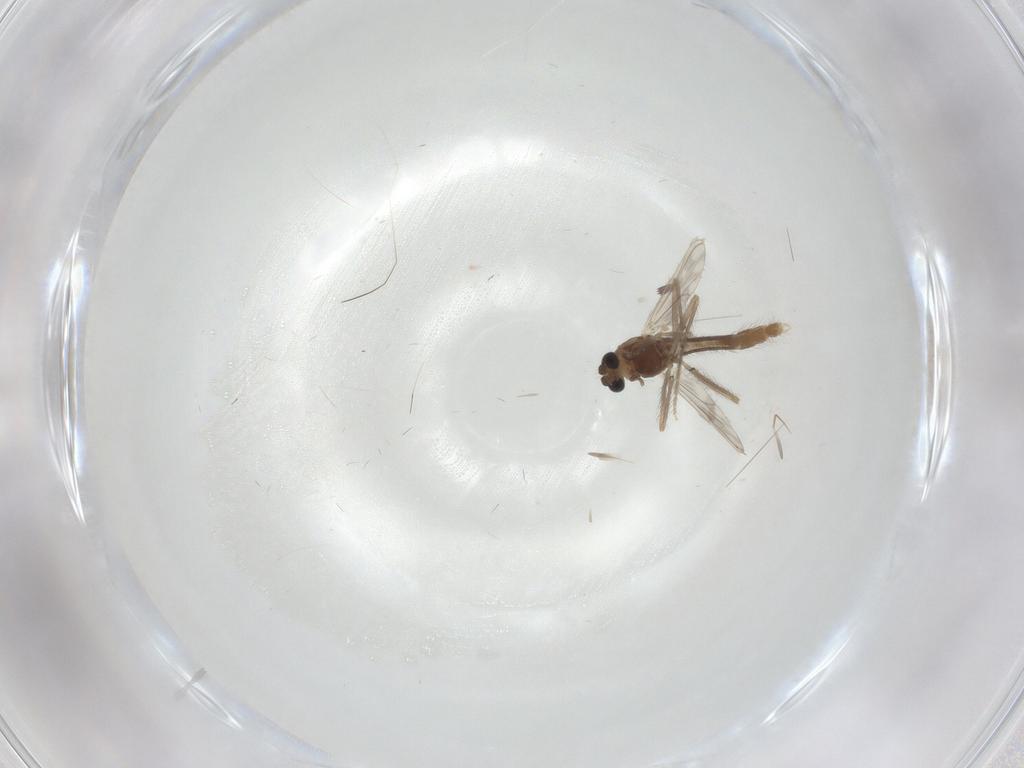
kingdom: Animalia
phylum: Arthropoda
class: Insecta
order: Diptera
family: Chironomidae
